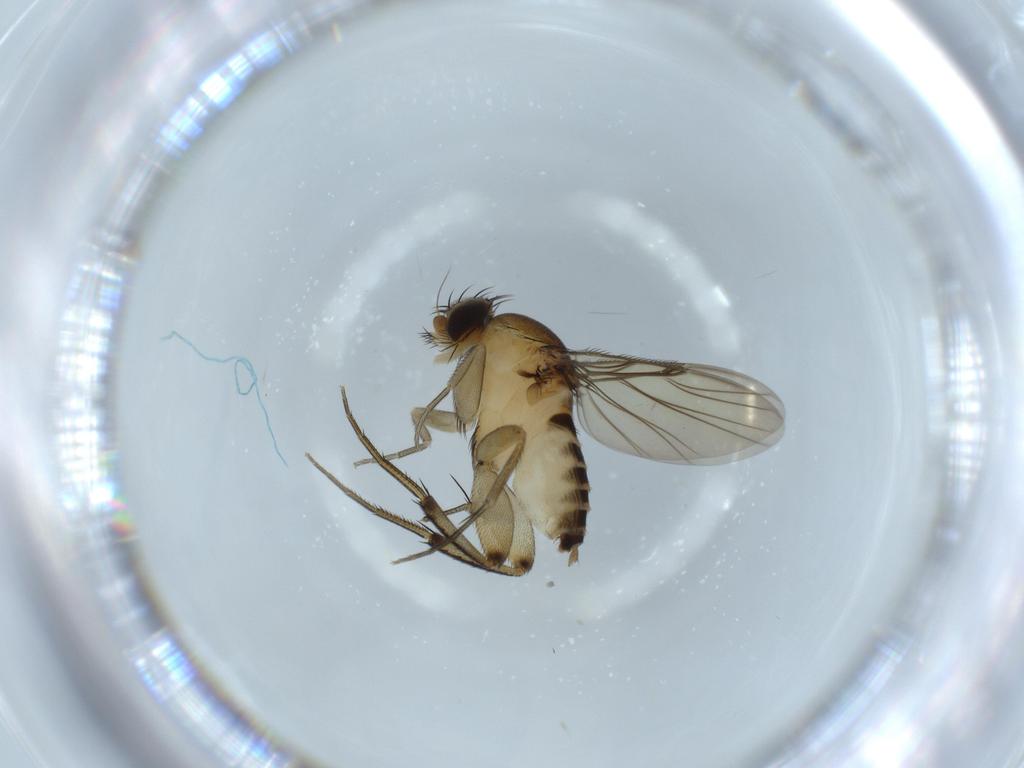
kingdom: Animalia
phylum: Arthropoda
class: Insecta
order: Diptera
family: Phoridae
